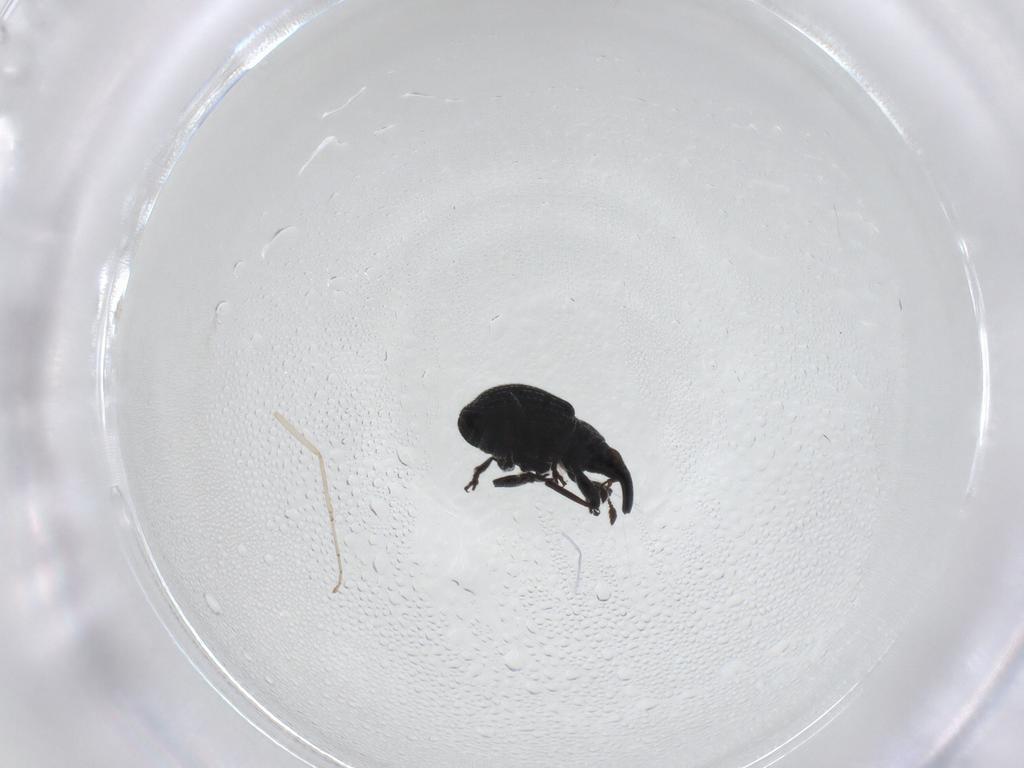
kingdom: Animalia
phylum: Arthropoda
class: Insecta
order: Coleoptera
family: Brentidae
